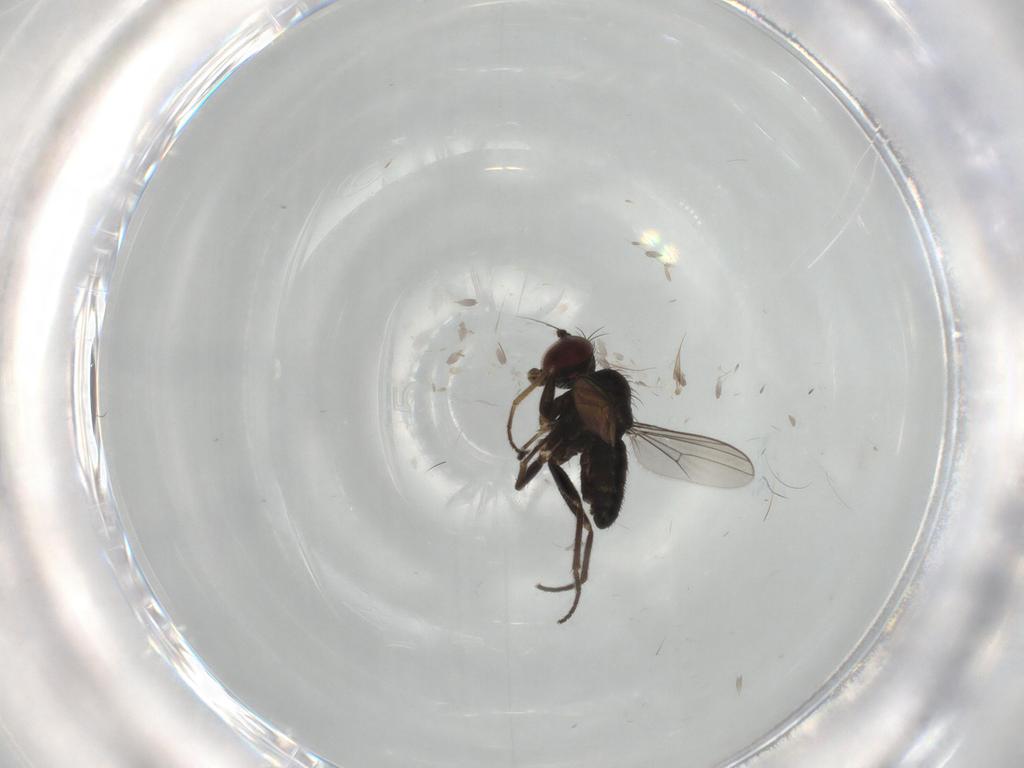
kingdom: Animalia
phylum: Arthropoda
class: Insecta
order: Diptera
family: Dolichopodidae
